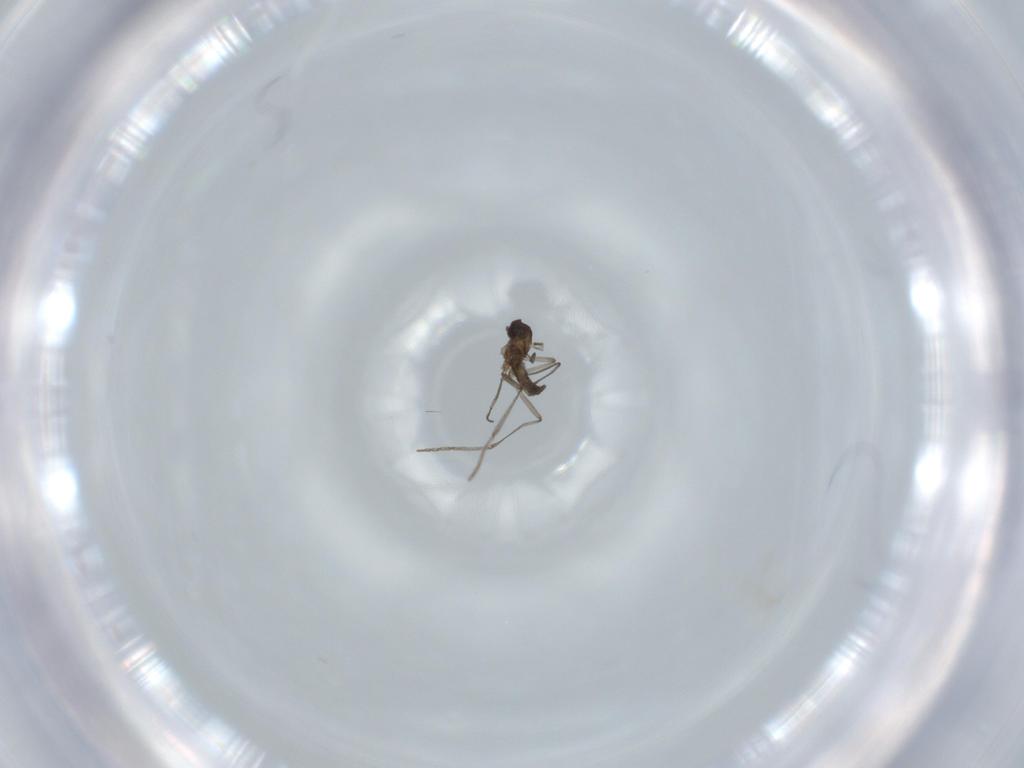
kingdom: Animalia
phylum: Arthropoda
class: Insecta
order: Diptera
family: Cecidomyiidae
